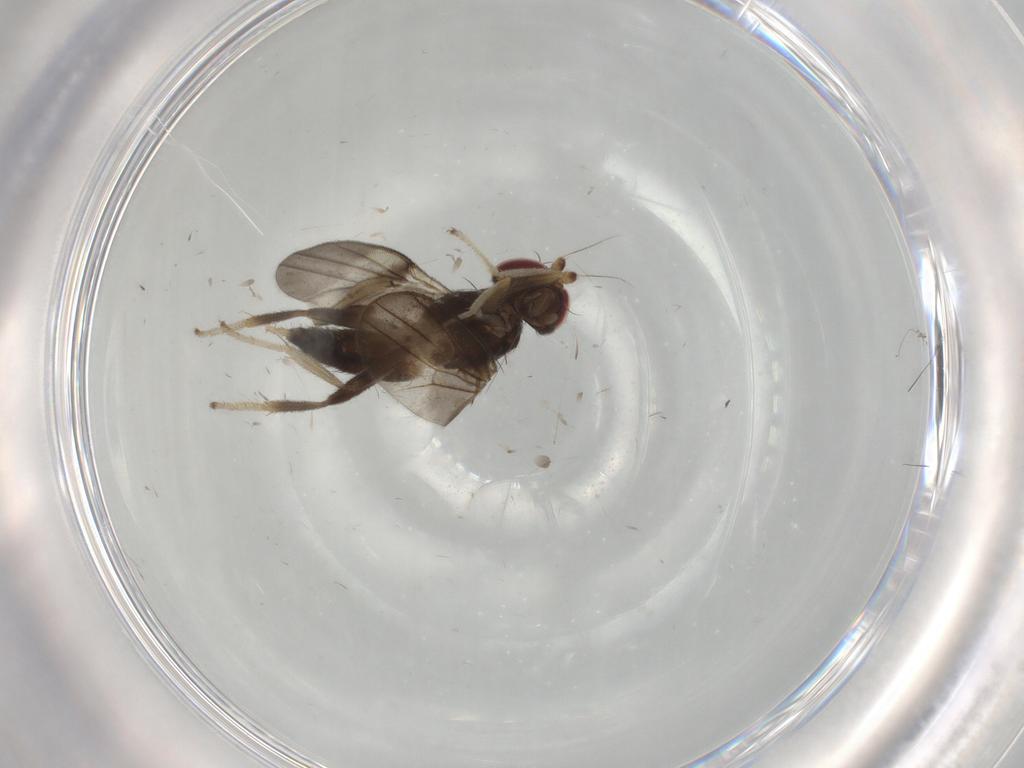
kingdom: Animalia
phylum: Arthropoda
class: Insecta
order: Diptera
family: Clusiidae
